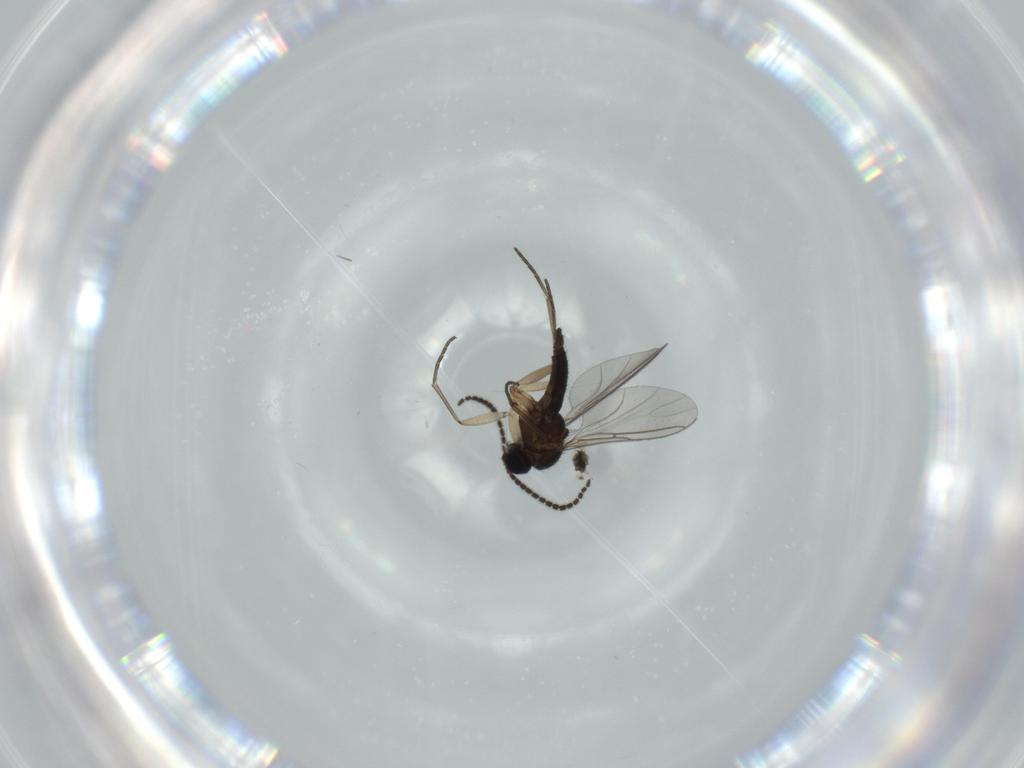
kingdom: Animalia
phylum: Arthropoda
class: Insecta
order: Diptera
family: Sciaridae
